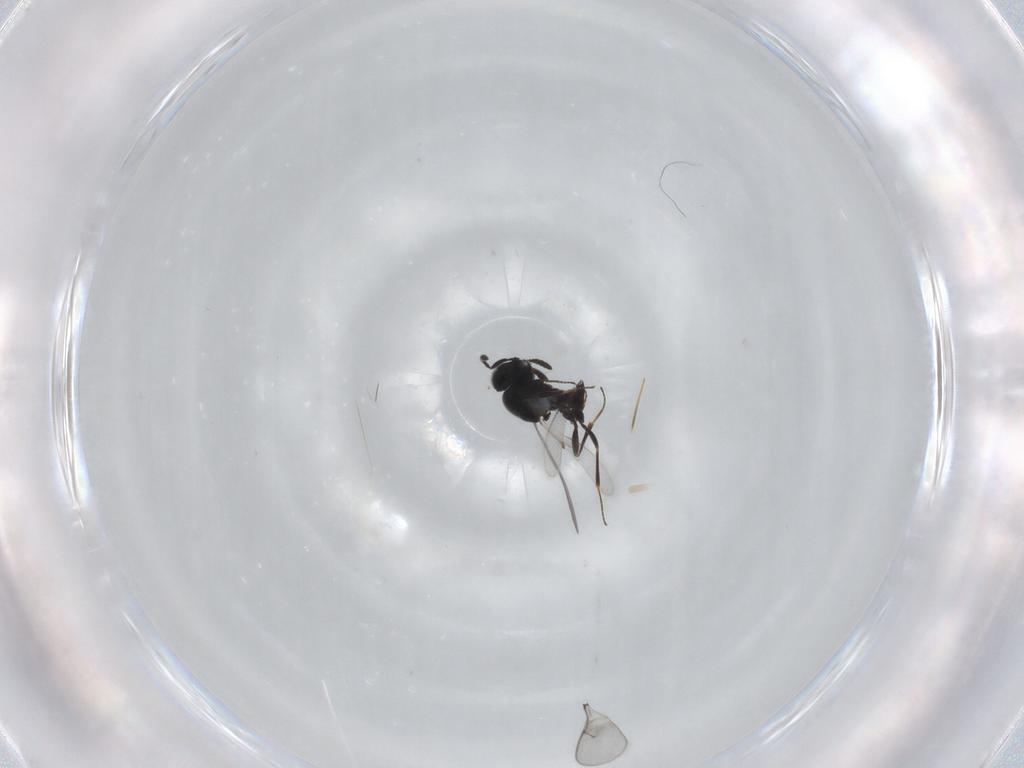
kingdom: Animalia
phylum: Arthropoda
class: Insecta
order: Hymenoptera
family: Scelionidae
